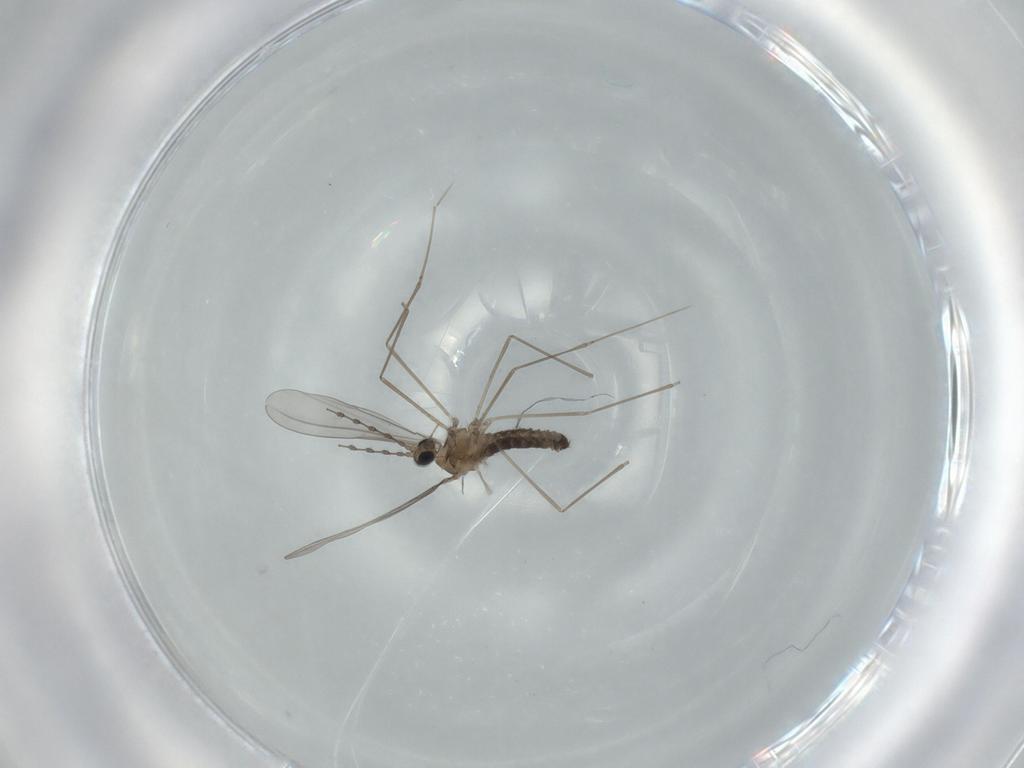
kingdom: Animalia
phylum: Arthropoda
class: Insecta
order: Diptera
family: Cecidomyiidae
